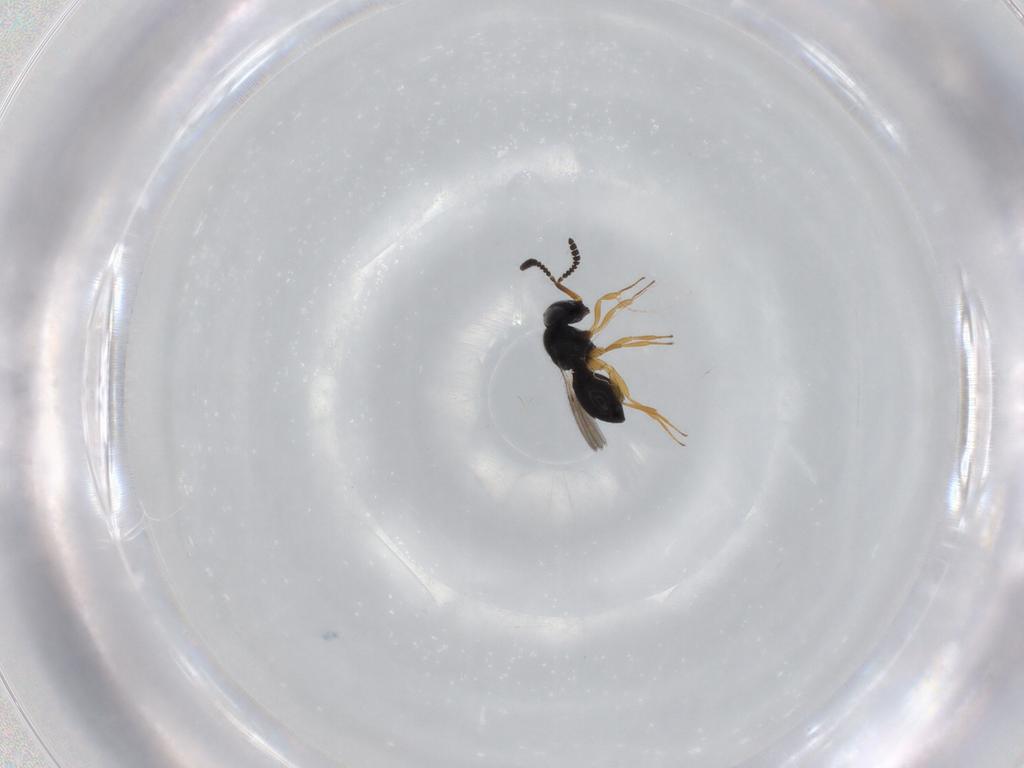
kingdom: Animalia
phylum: Arthropoda
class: Insecta
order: Hymenoptera
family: Scelionidae
